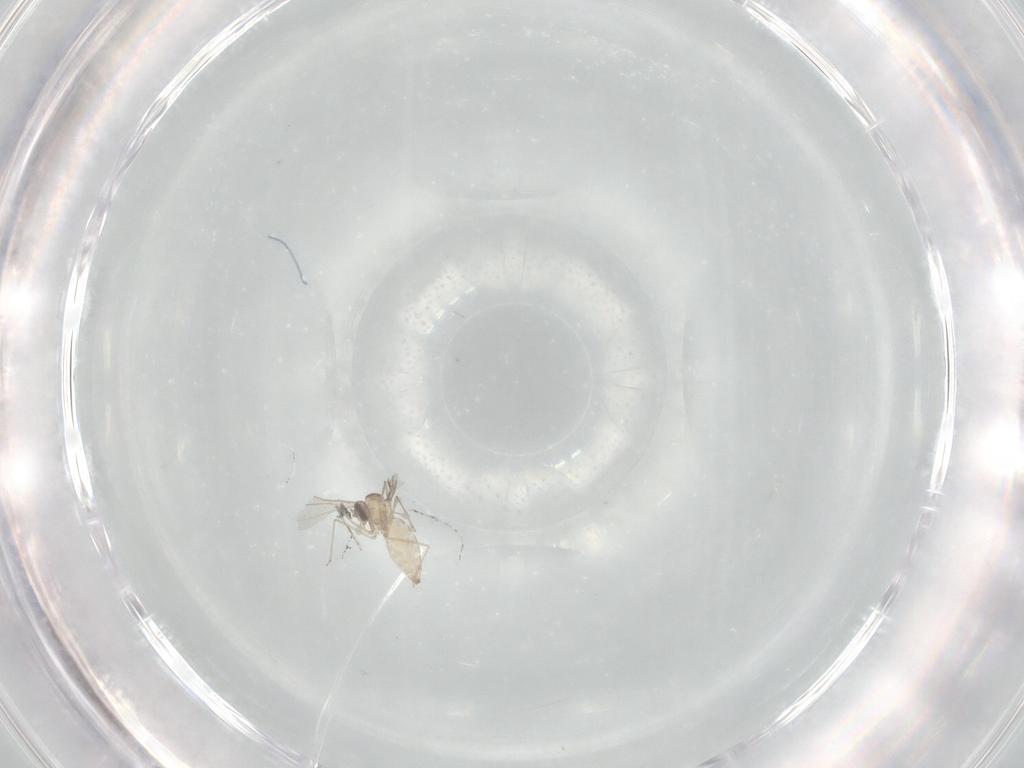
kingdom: Animalia
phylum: Arthropoda
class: Insecta
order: Diptera
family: Cecidomyiidae
